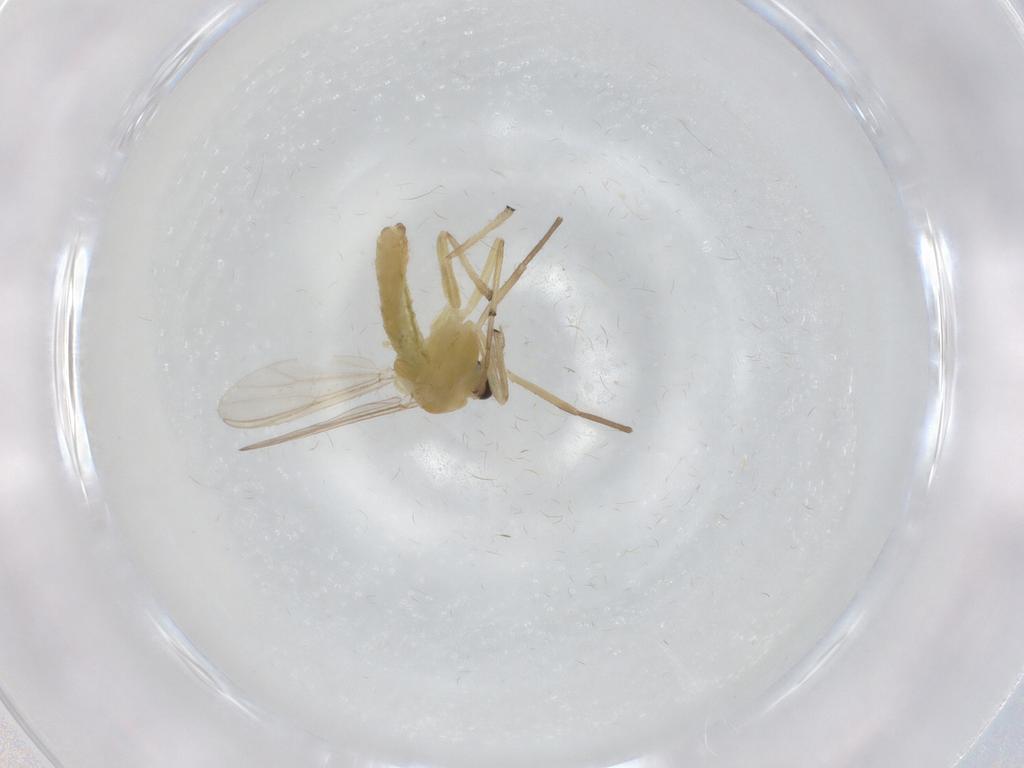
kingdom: Animalia
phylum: Arthropoda
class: Insecta
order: Diptera
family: Chironomidae
